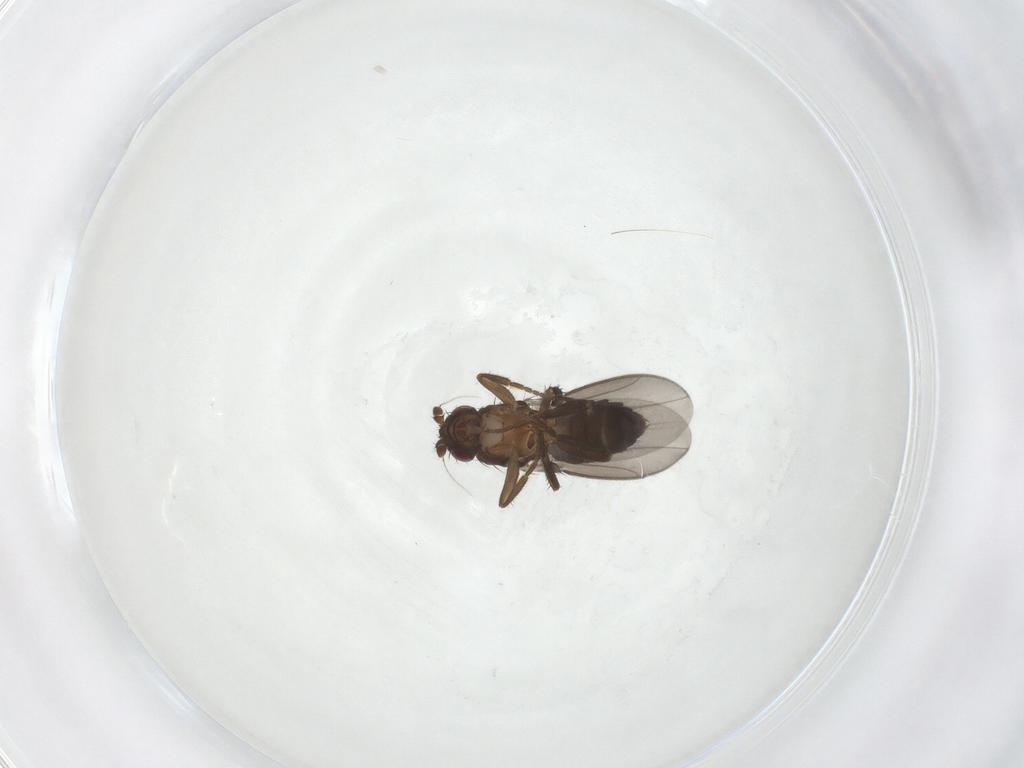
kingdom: Animalia
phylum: Arthropoda
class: Insecta
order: Diptera
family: Sphaeroceridae
